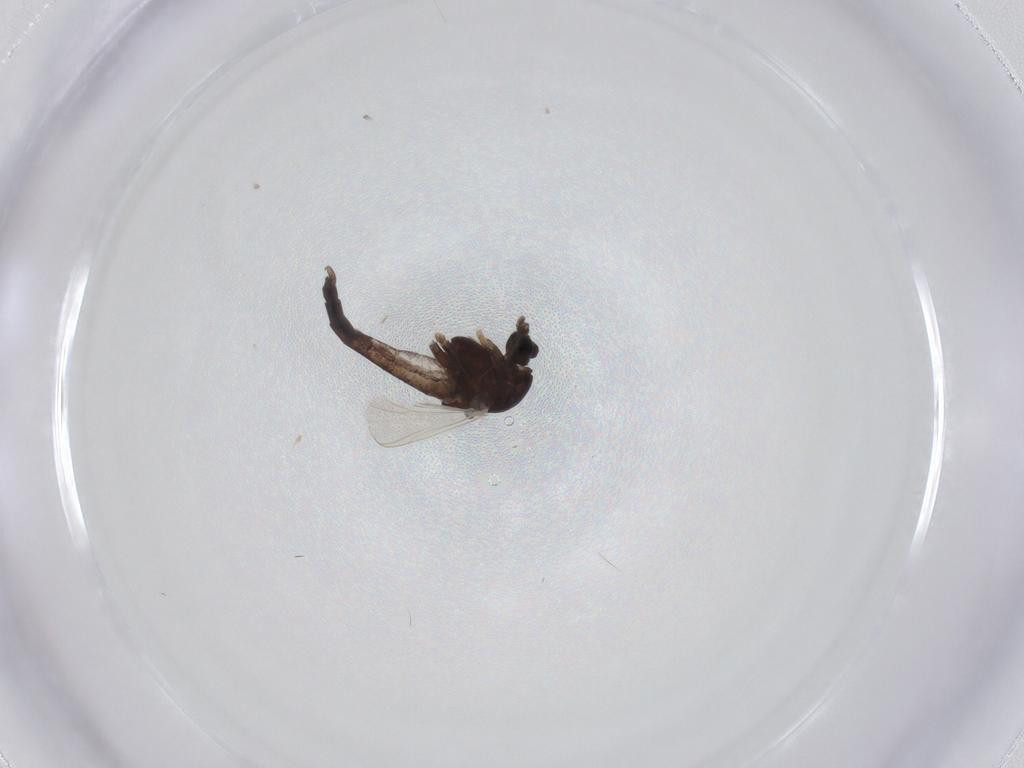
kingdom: Animalia
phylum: Arthropoda
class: Insecta
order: Diptera
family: Chironomidae
